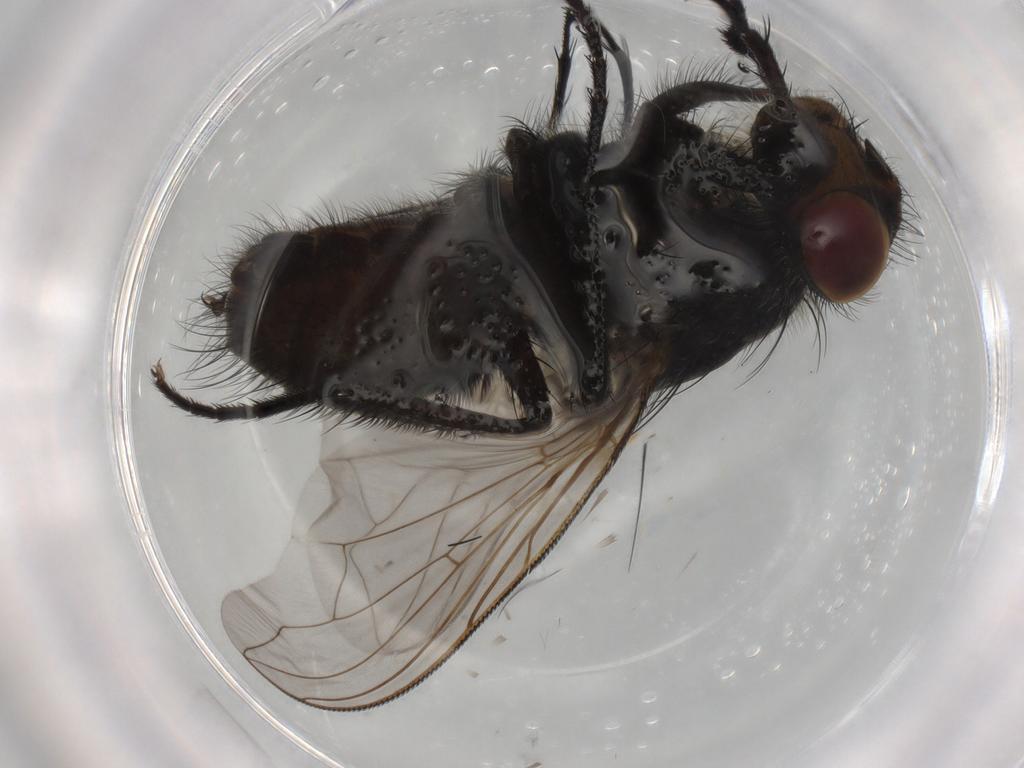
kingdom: Animalia
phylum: Arthropoda
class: Insecta
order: Diptera
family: Polleniidae
